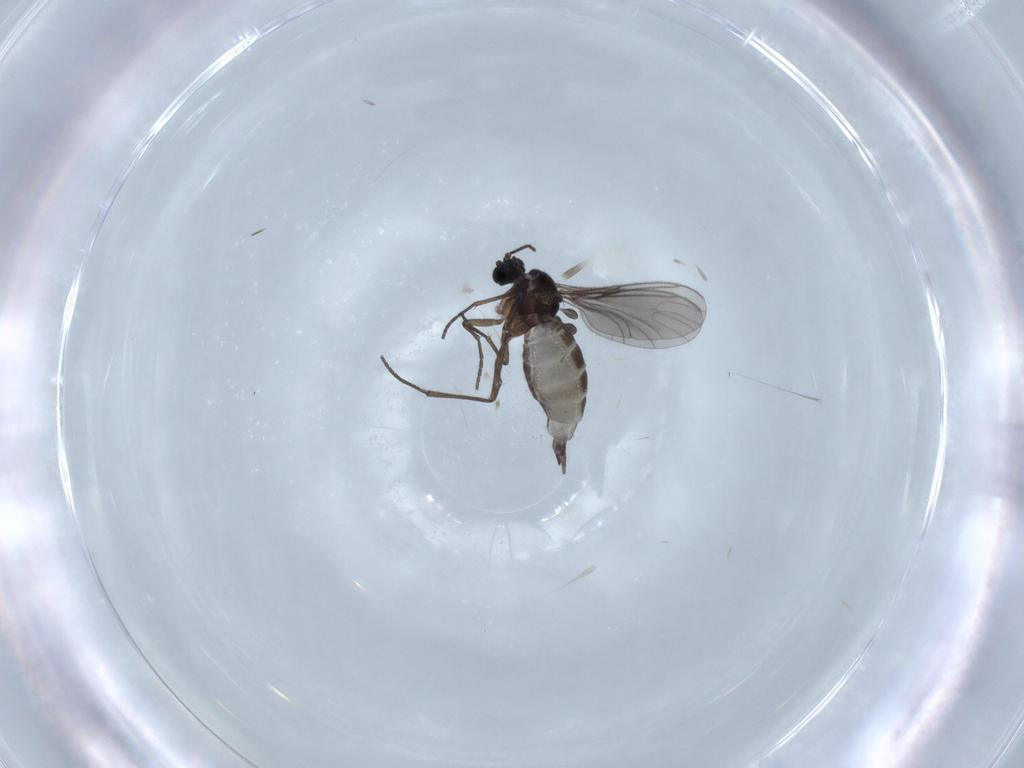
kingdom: Animalia
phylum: Arthropoda
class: Insecta
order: Diptera
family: Sciaridae
